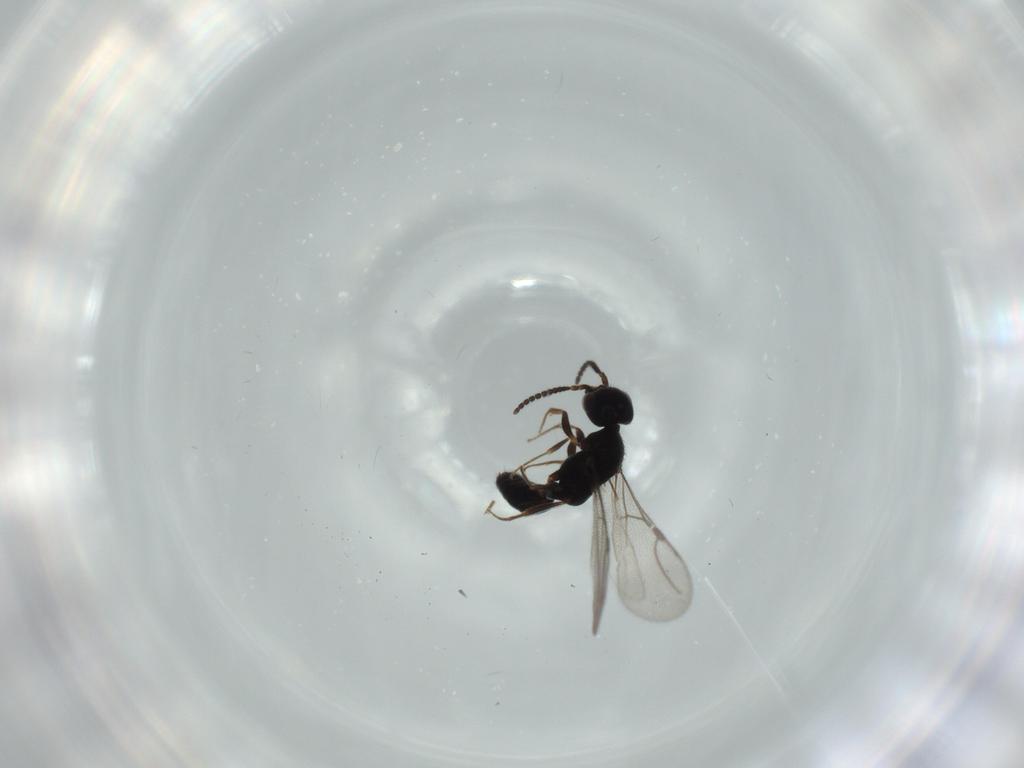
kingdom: Animalia
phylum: Arthropoda
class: Insecta
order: Hymenoptera
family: Bethylidae
